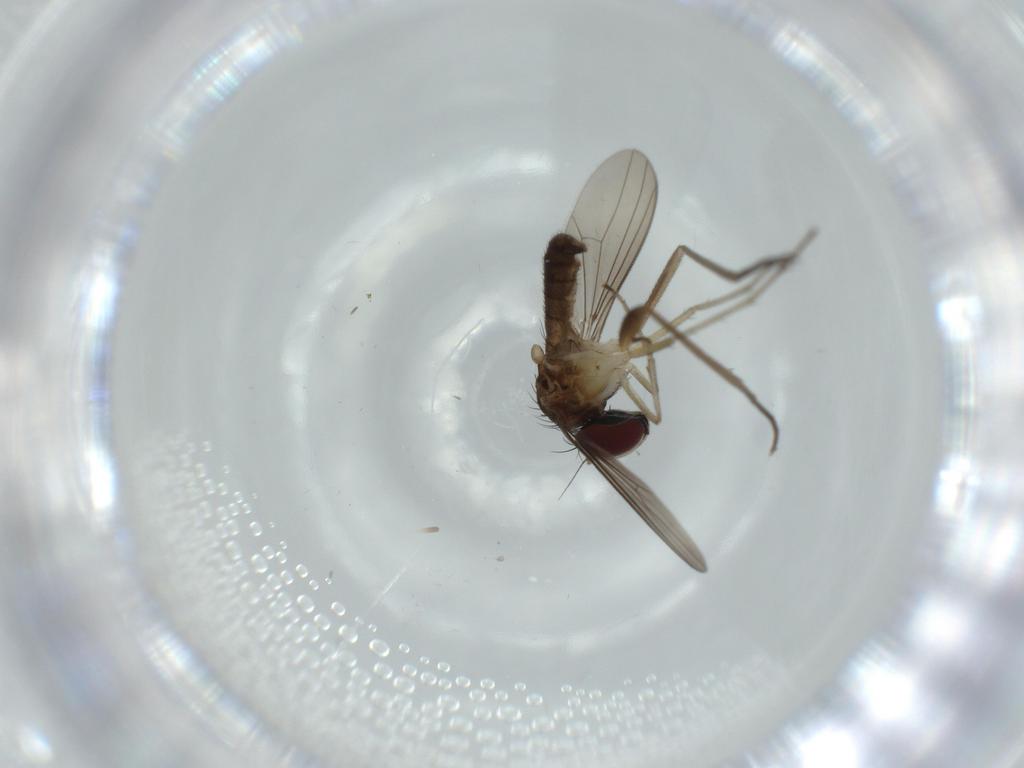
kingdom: Animalia
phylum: Arthropoda
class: Insecta
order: Diptera
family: Dolichopodidae
